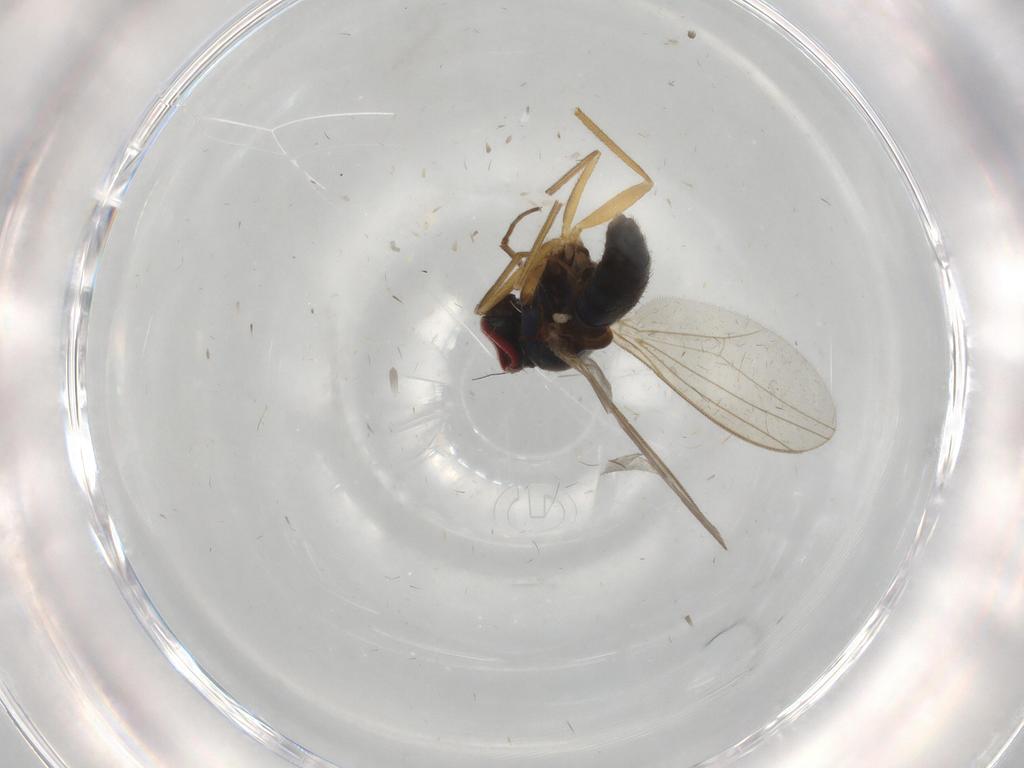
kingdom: Animalia
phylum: Arthropoda
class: Insecta
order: Diptera
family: Dolichopodidae
